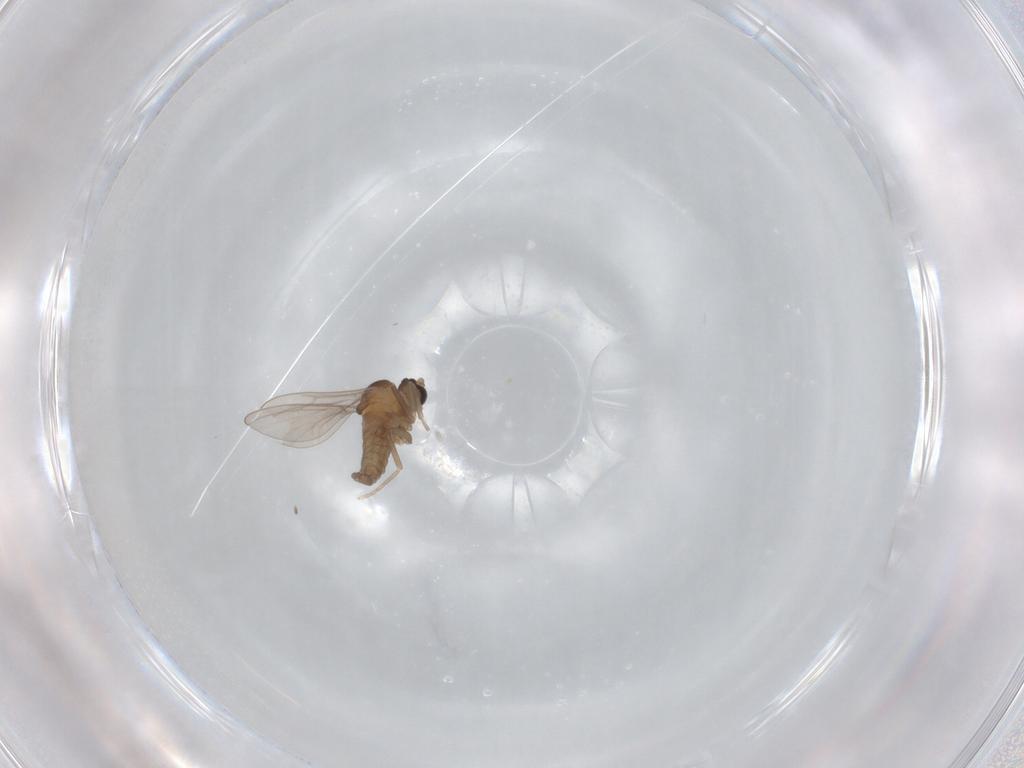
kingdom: Animalia
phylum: Arthropoda
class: Insecta
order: Diptera
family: Cecidomyiidae
